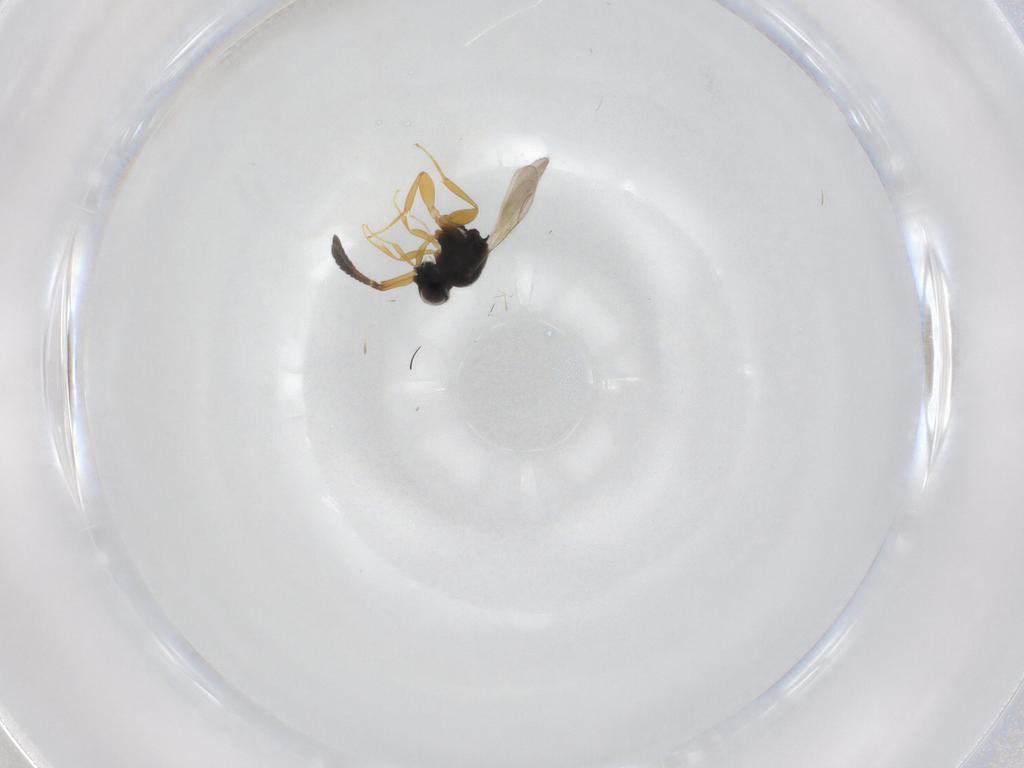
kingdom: Animalia
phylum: Arthropoda
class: Insecta
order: Hymenoptera
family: Ceraphronidae
